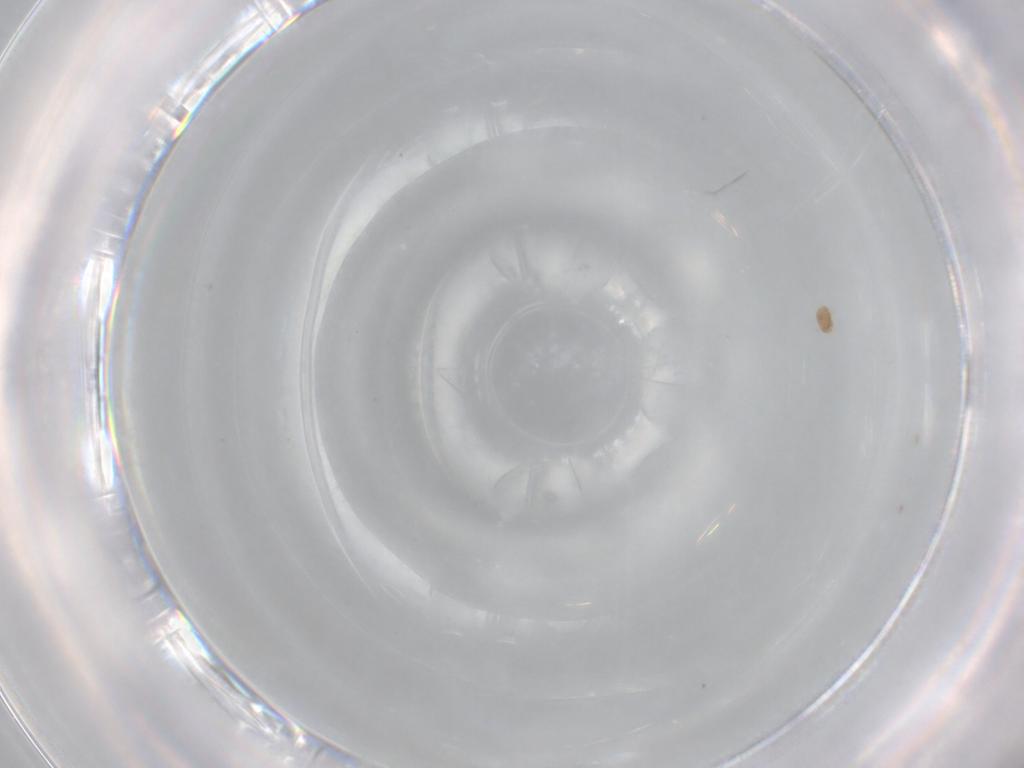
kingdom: Animalia
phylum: Arthropoda
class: Arachnida
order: Trombidiformes
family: Scutacaridae
